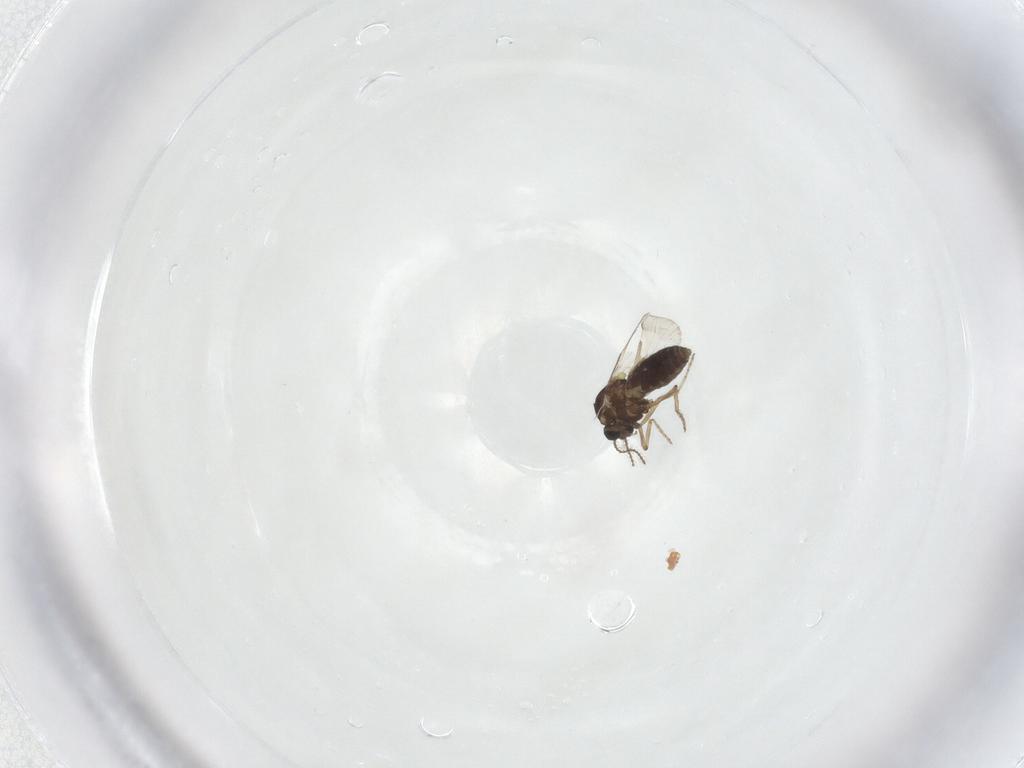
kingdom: Animalia
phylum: Arthropoda
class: Insecta
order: Diptera
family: Ceratopogonidae
